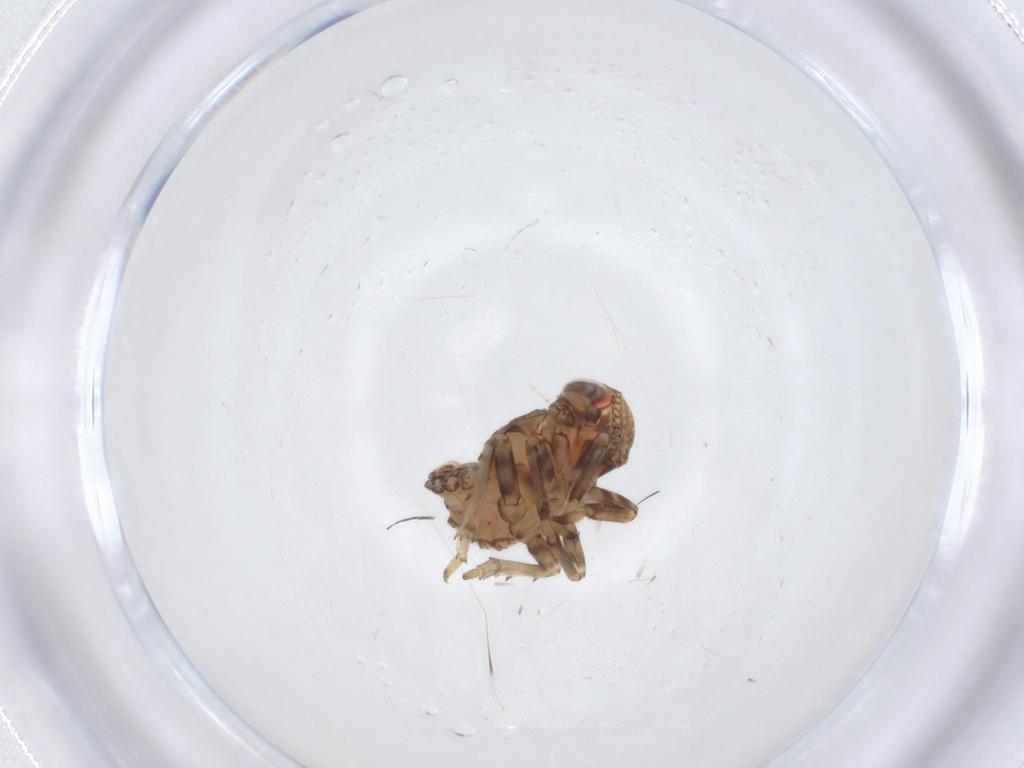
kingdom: Animalia
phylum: Arthropoda
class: Insecta
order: Hemiptera
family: Issidae
